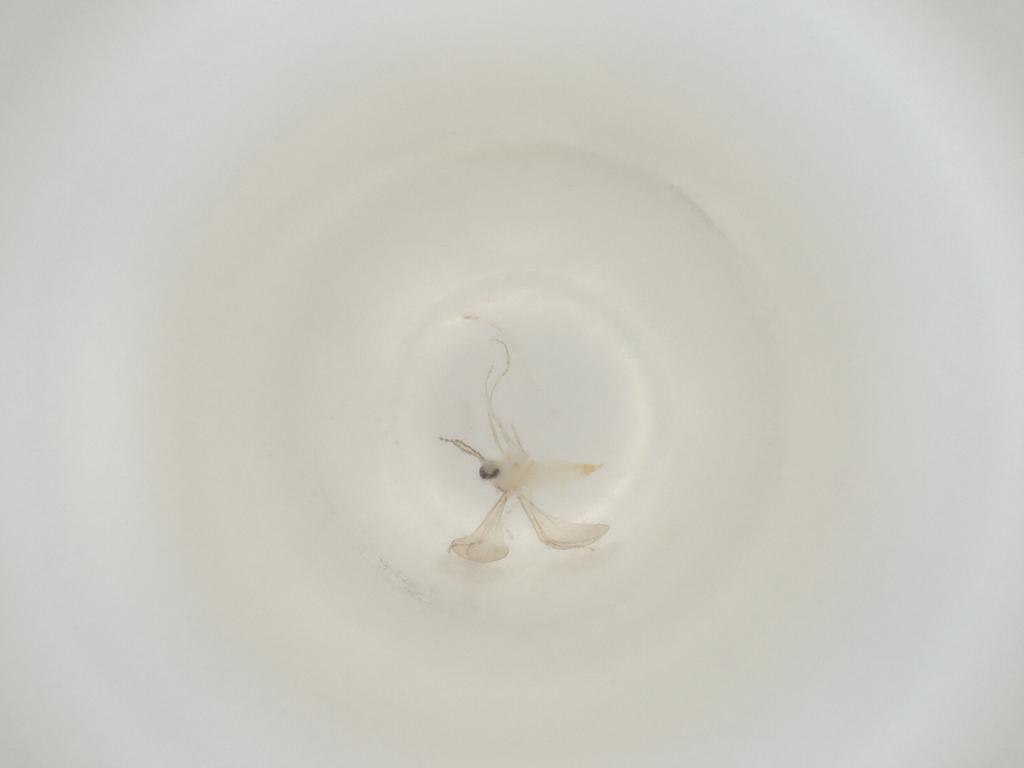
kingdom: Animalia
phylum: Arthropoda
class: Insecta
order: Diptera
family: Cecidomyiidae
